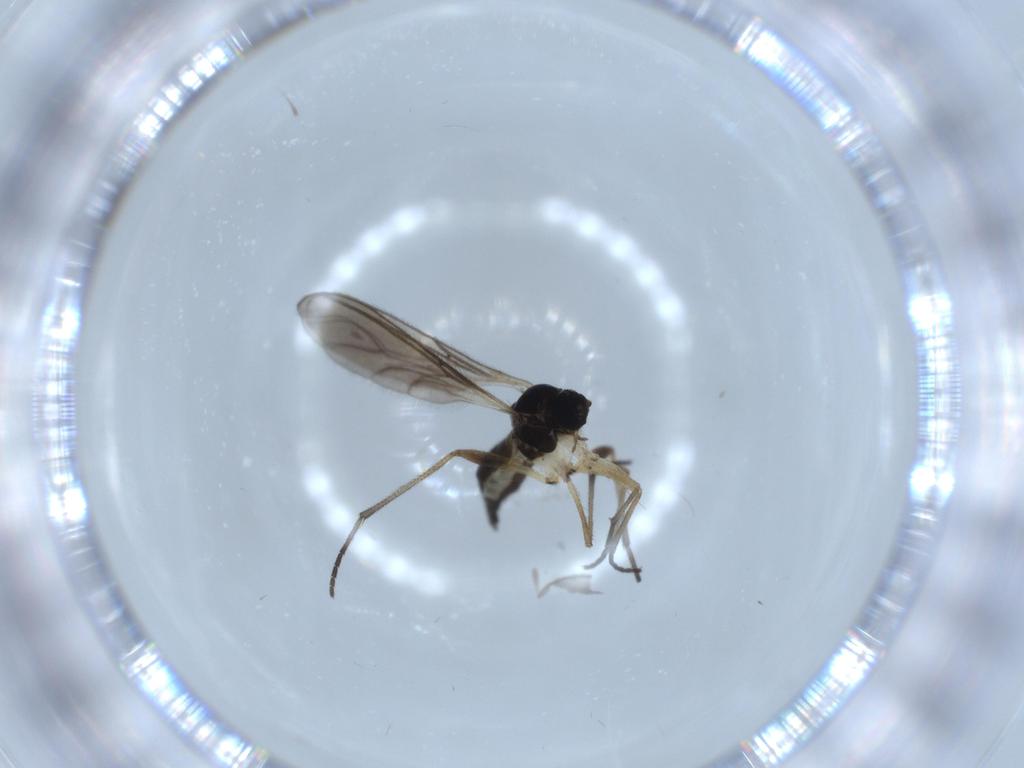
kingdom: Animalia
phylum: Arthropoda
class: Insecta
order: Diptera
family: Sciaridae
